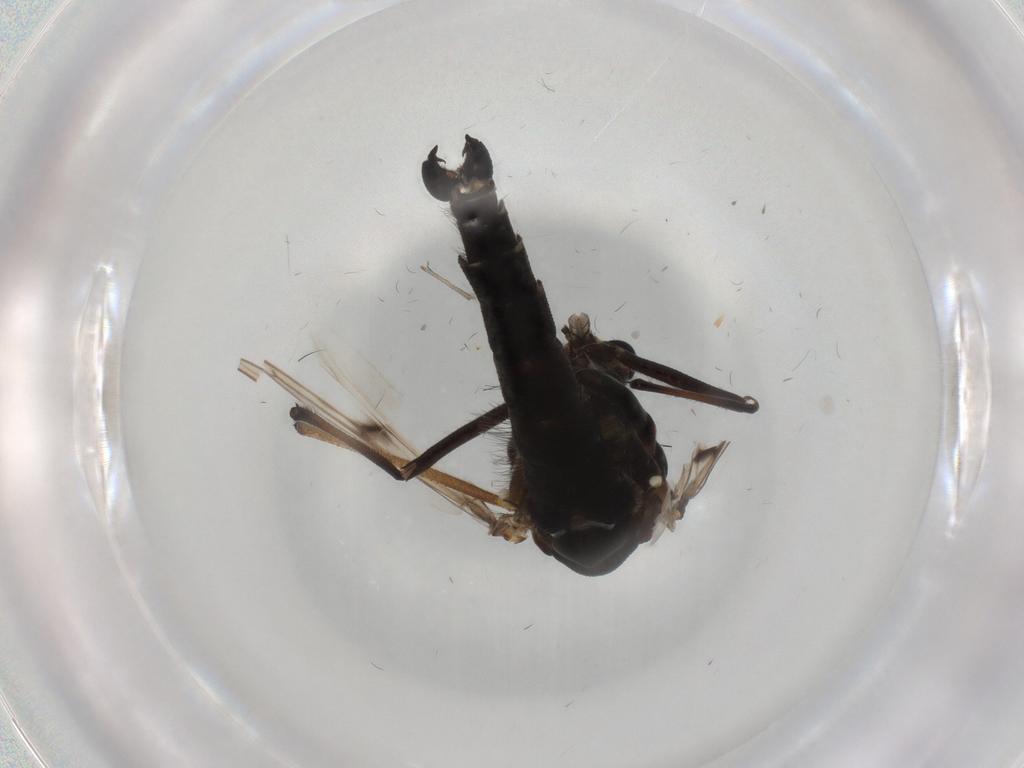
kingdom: Animalia
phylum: Arthropoda
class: Insecta
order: Diptera
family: Chironomidae
